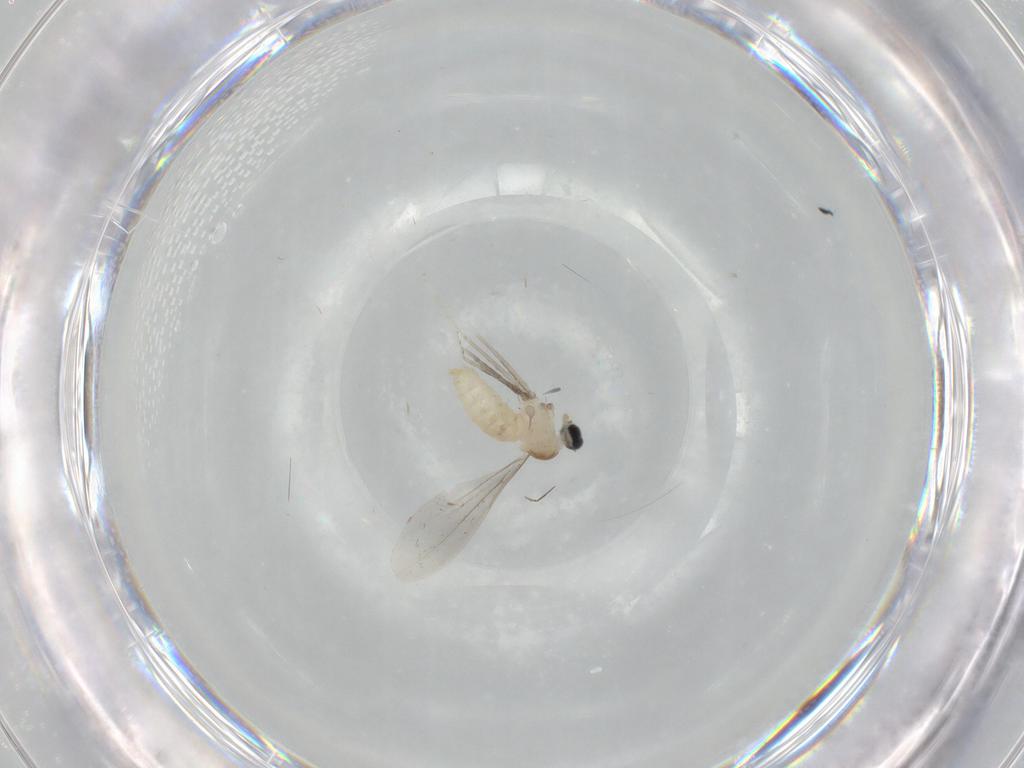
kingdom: Animalia
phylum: Arthropoda
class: Insecta
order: Diptera
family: Cecidomyiidae
